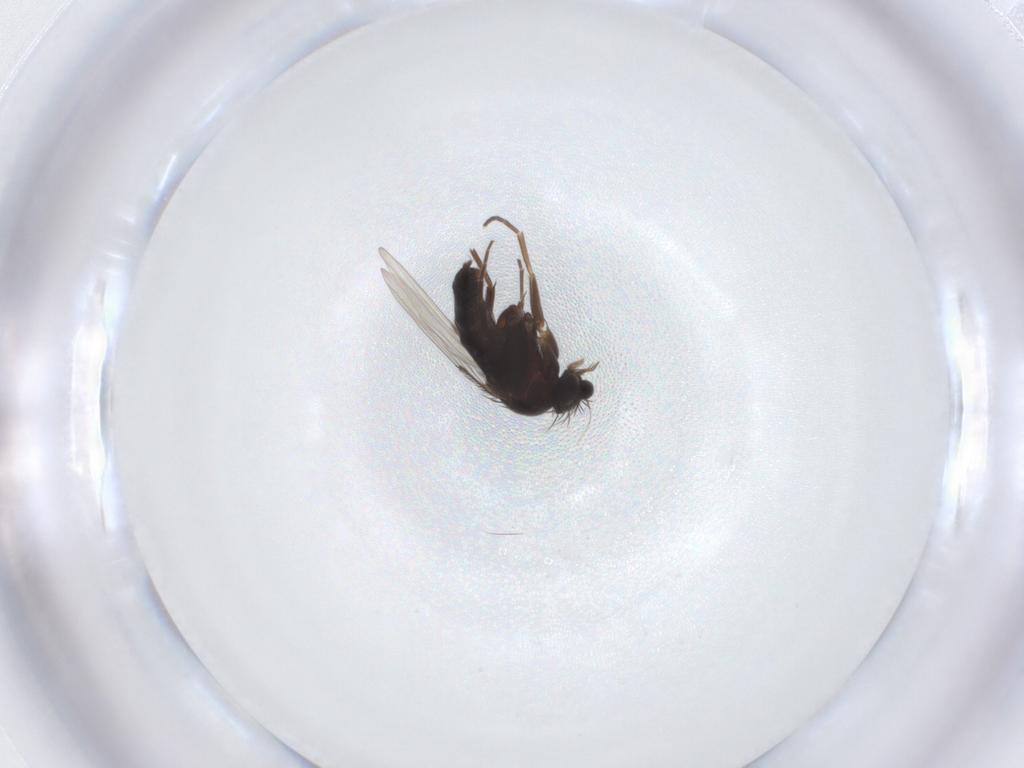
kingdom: Animalia
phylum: Arthropoda
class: Insecta
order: Diptera
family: Phoridae
